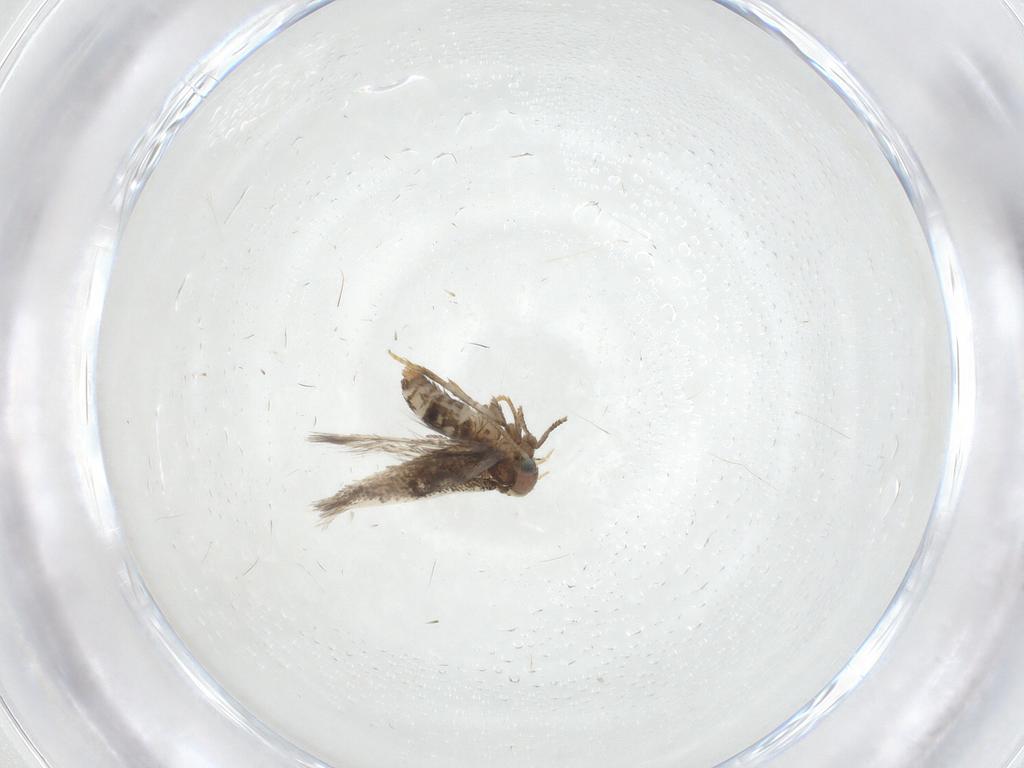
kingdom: Animalia
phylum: Arthropoda
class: Insecta
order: Lepidoptera
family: Nepticulidae
